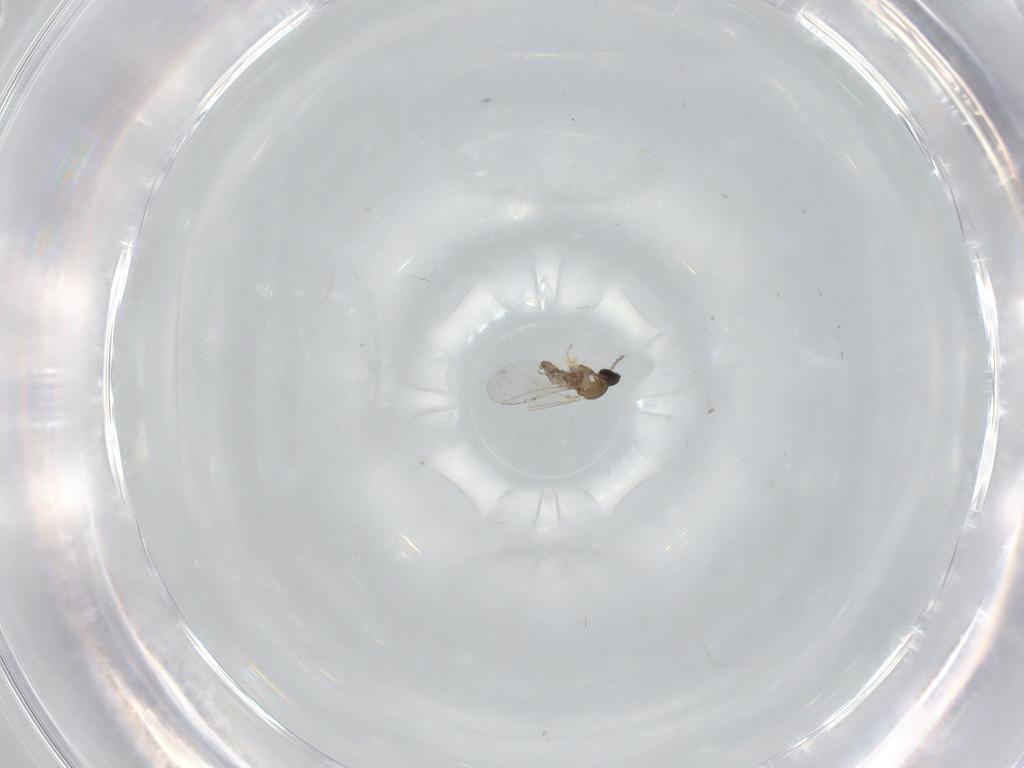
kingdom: Animalia
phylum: Arthropoda
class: Insecta
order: Diptera
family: Cecidomyiidae
